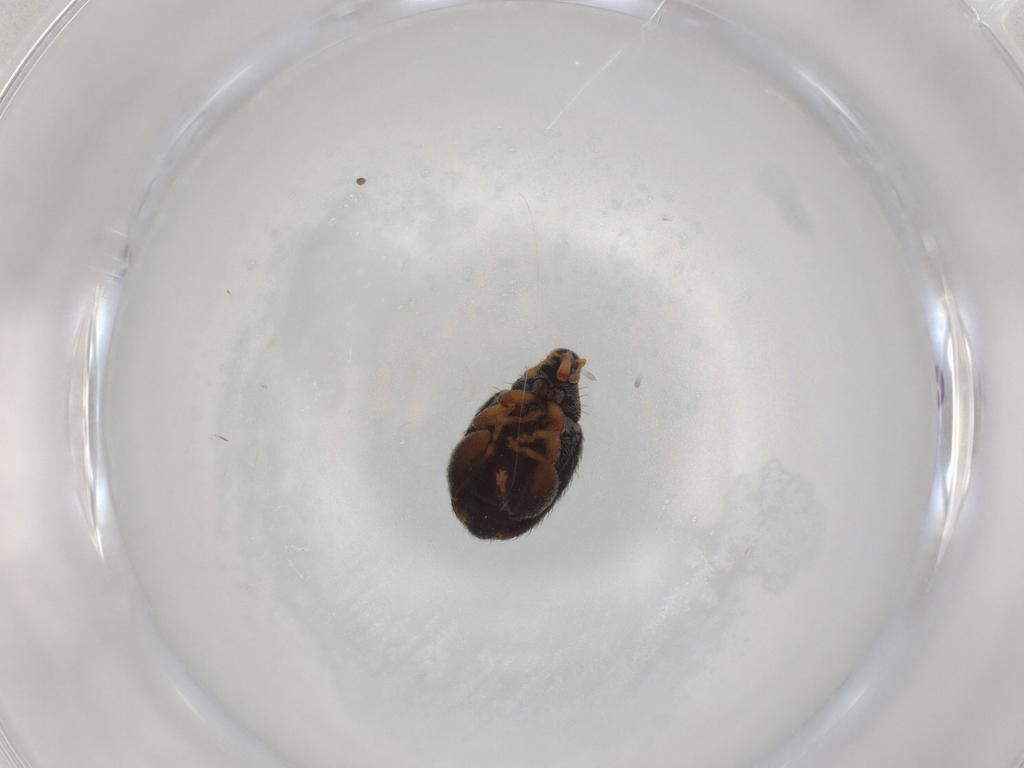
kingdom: Animalia
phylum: Arthropoda
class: Insecta
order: Coleoptera
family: Curculionidae
